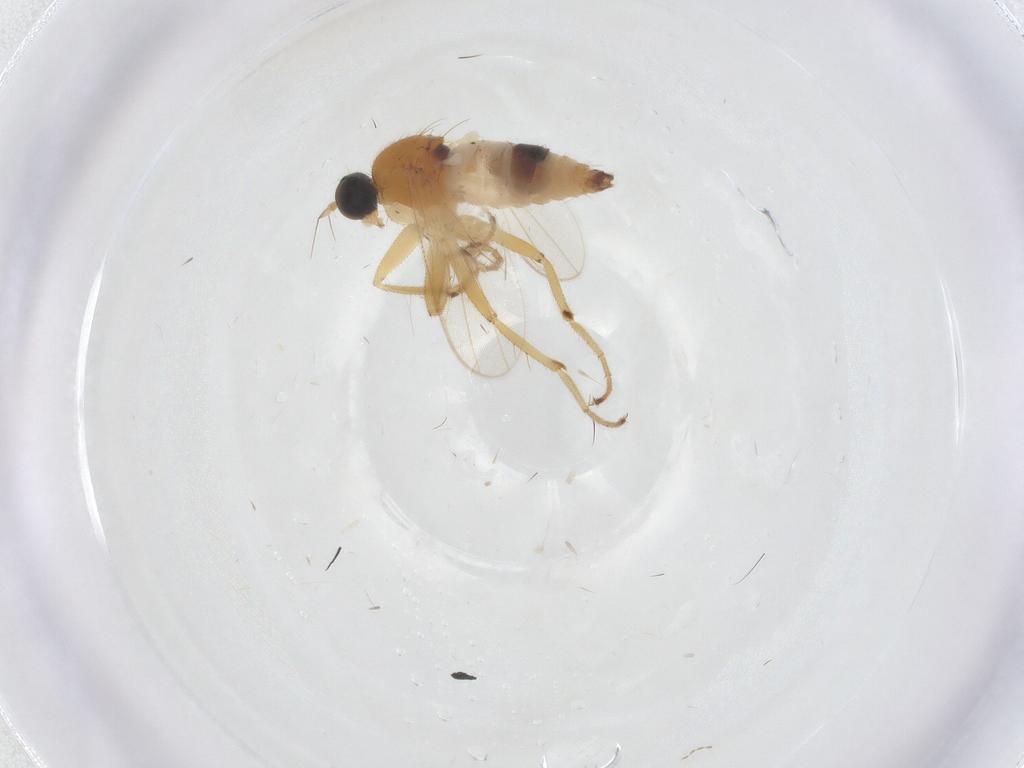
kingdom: Animalia
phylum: Arthropoda
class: Insecta
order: Diptera
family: Hybotidae
